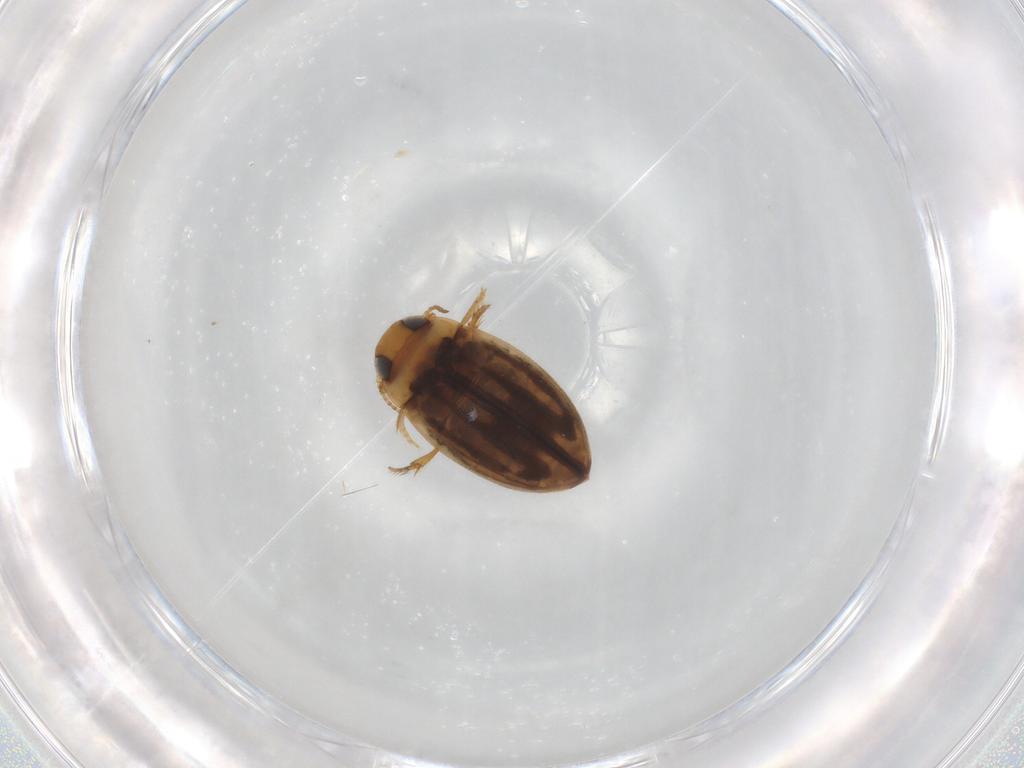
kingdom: Animalia
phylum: Arthropoda
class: Insecta
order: Coleoptera
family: Dytiscidae
